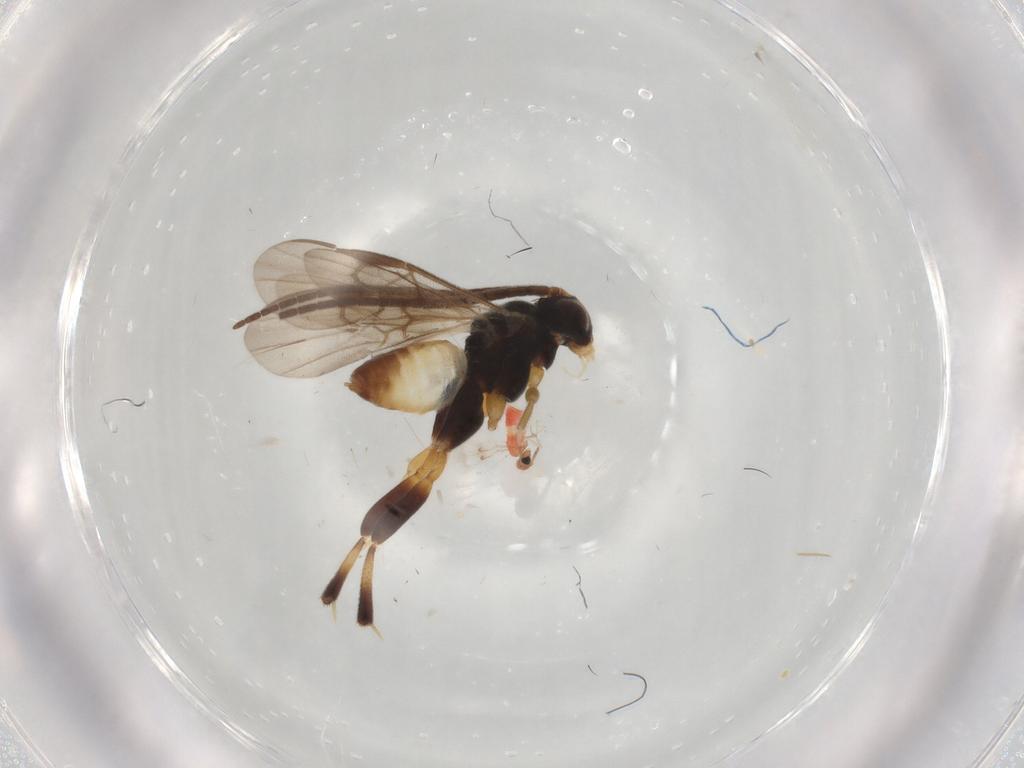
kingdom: Animalia
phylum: Arthropoda
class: Insecta
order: Hymenoptera
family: Braconidae
